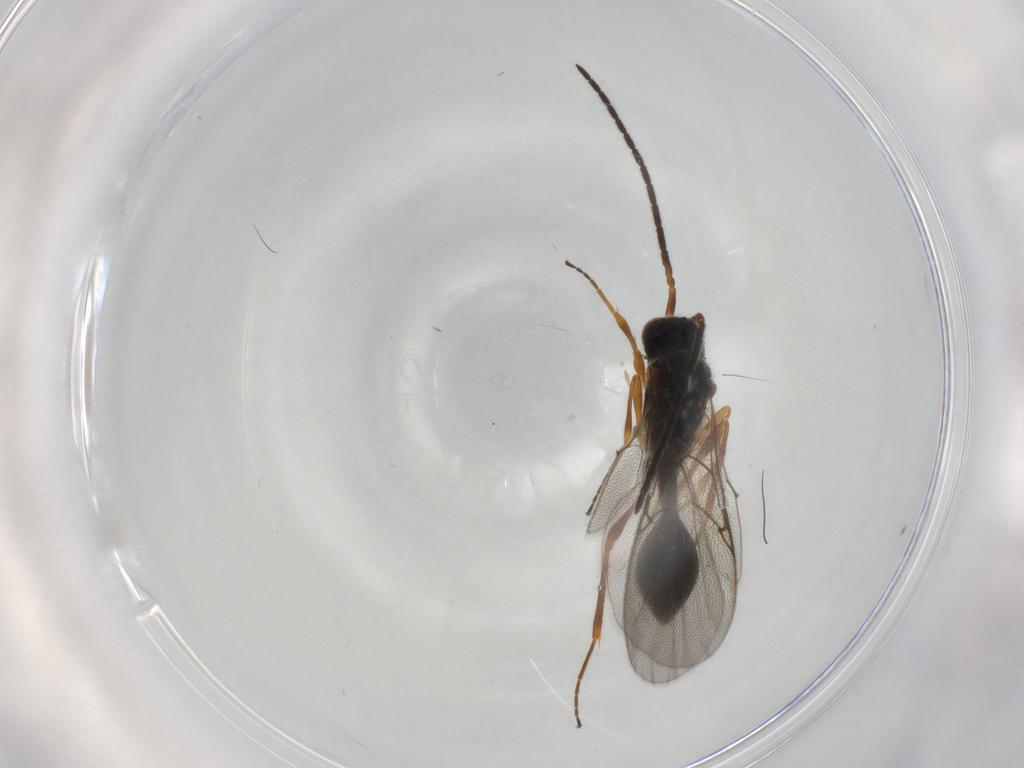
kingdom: Animalia
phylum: Arthropoda
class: Insecta
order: Hymenoptera
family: Diapriidae
